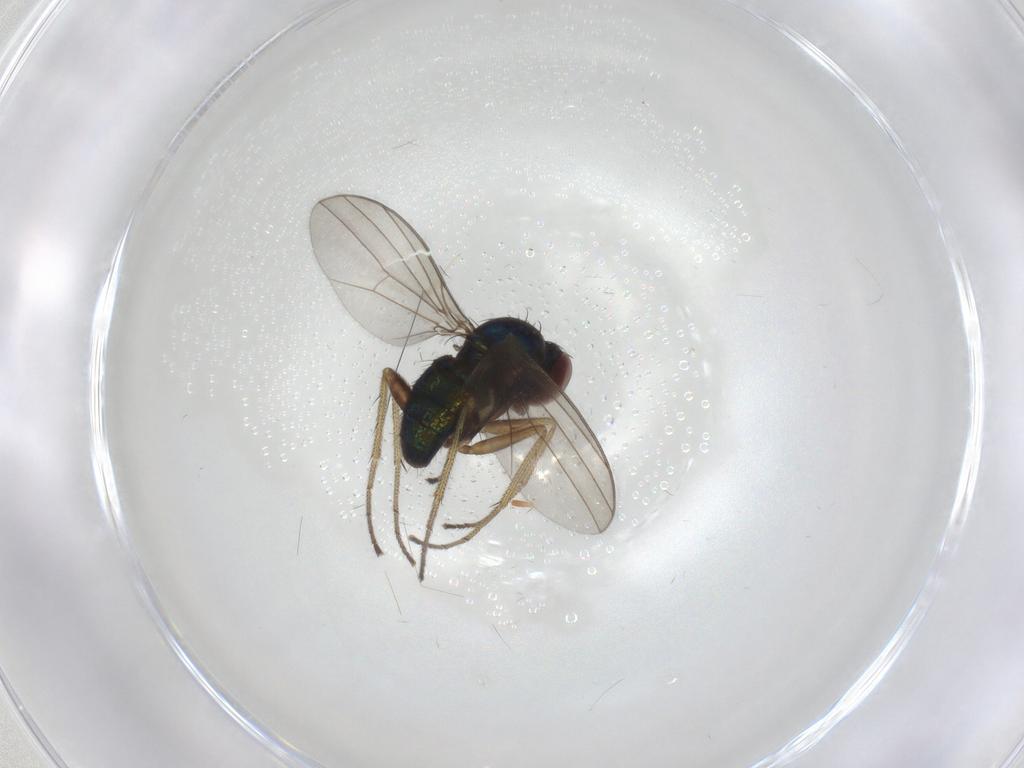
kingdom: Animalia
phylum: Arthropoda
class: Insecta
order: Diptera
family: Dolichopodidae
